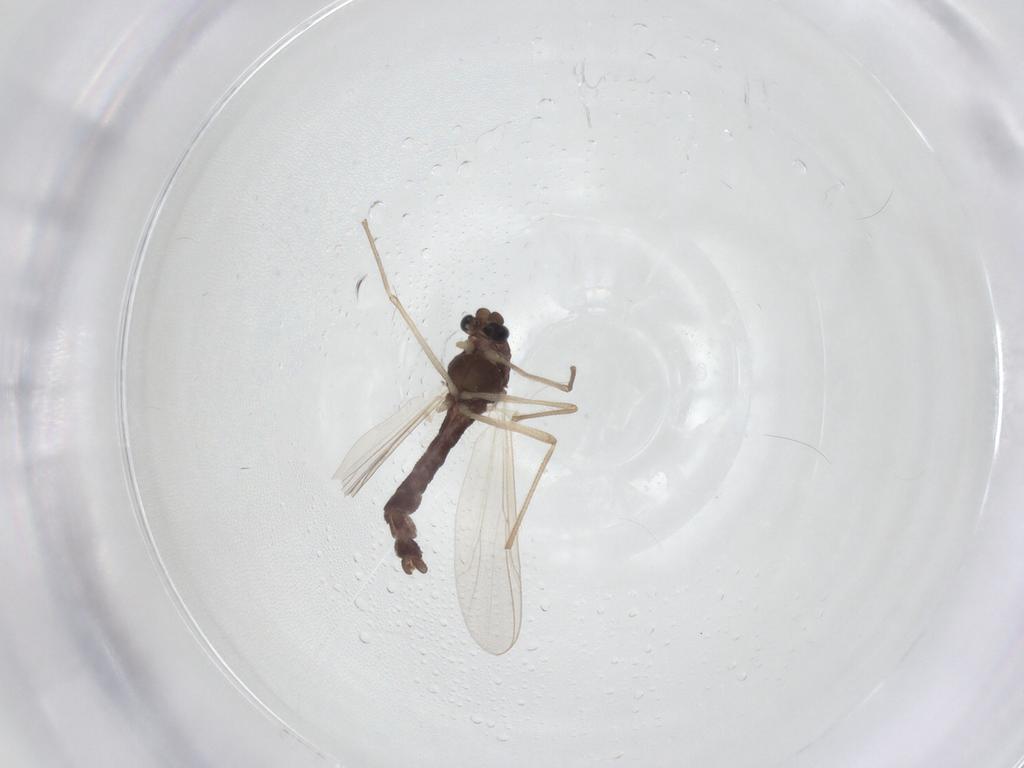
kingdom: Animalia
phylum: Arthropoda
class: Insecta
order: Diptera
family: Chironomidae
